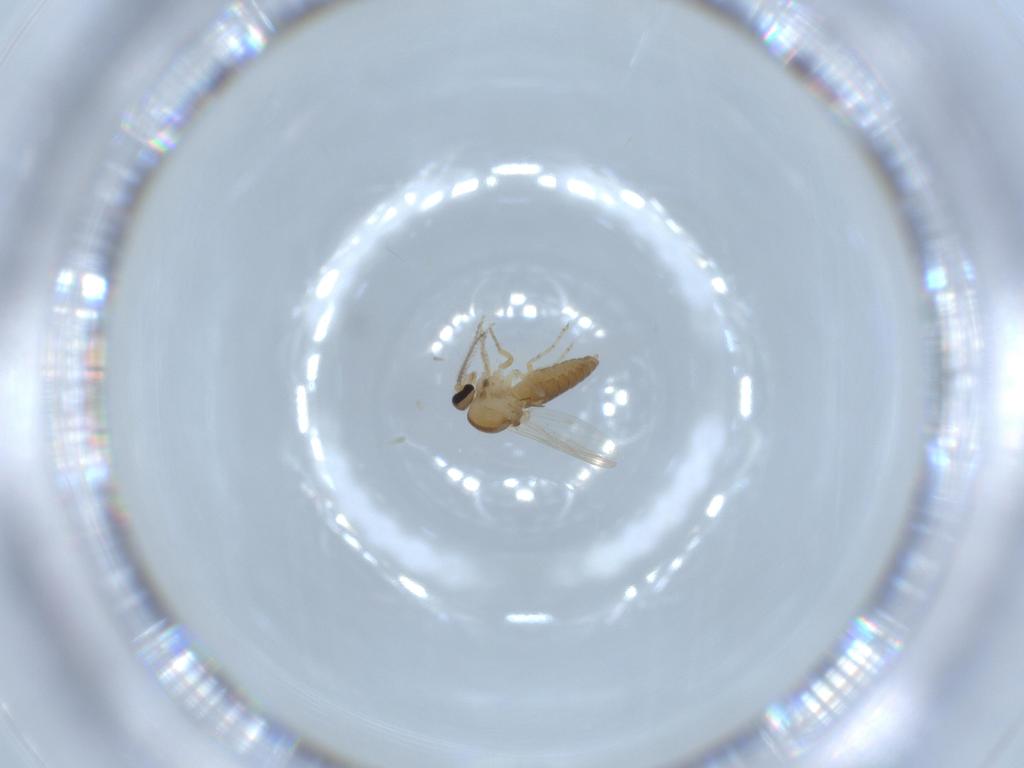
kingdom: Animalia
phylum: Arthropoda
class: Insecta
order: Diptera
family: Ceratopogonidae
